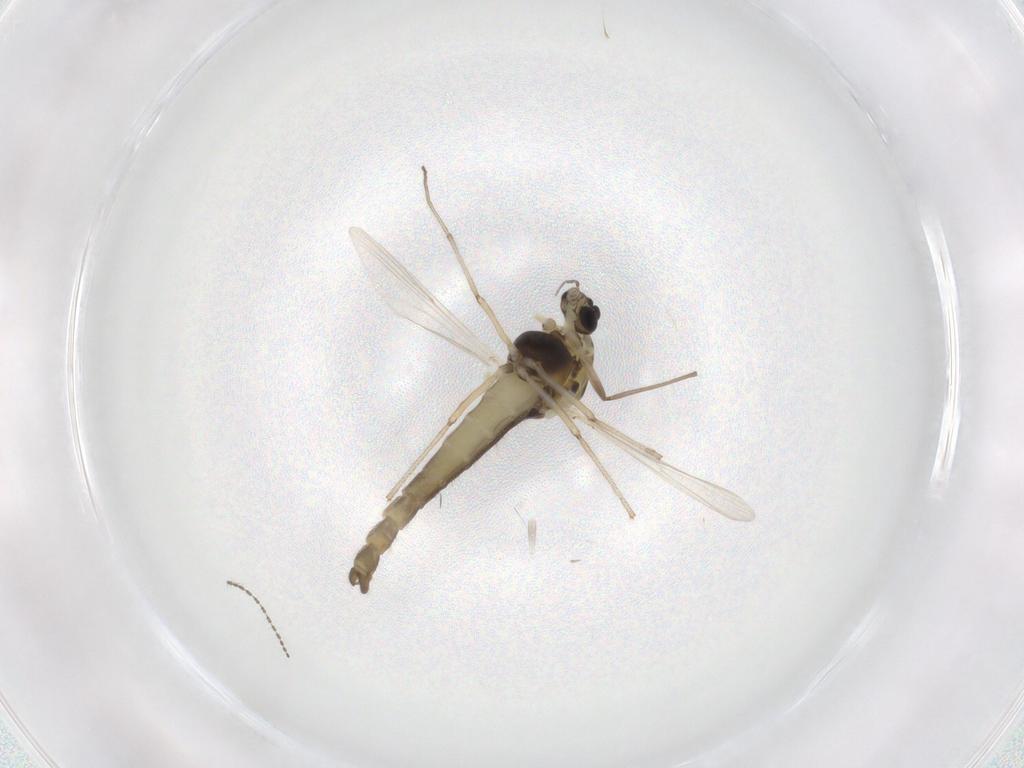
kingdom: Animalia
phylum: Arthropoda
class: Insecta
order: Diptera
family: Chironomidae
